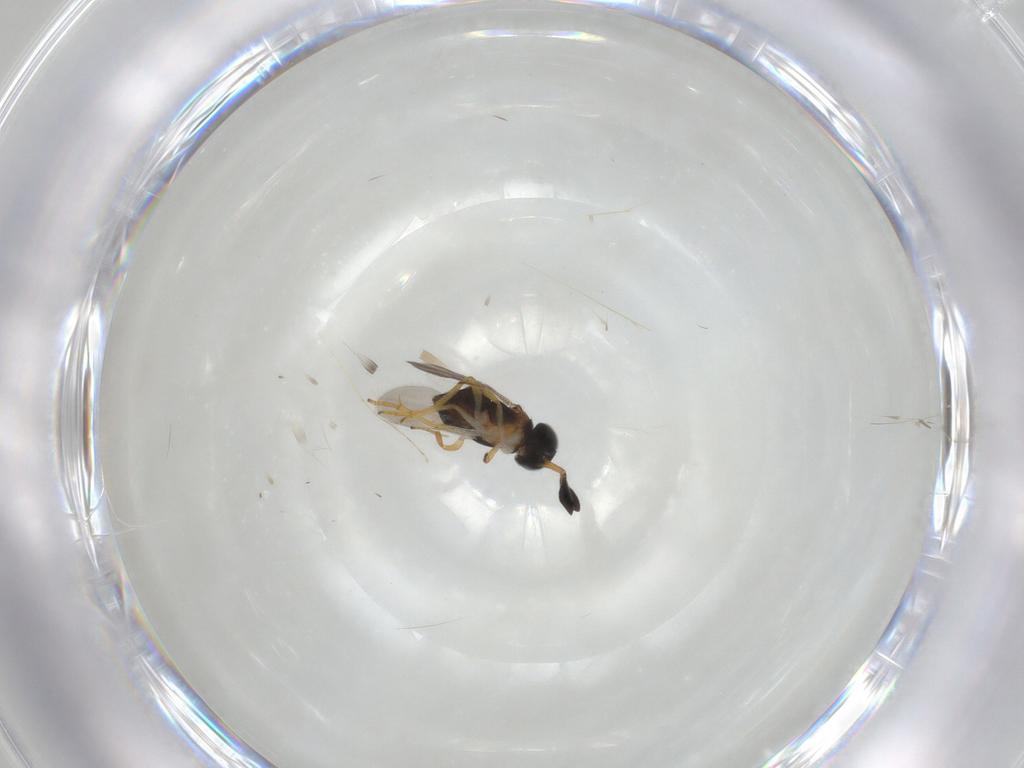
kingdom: Animalia
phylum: Arthropoda
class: Insecta
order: Hymenoptera
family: Encyrtidae
